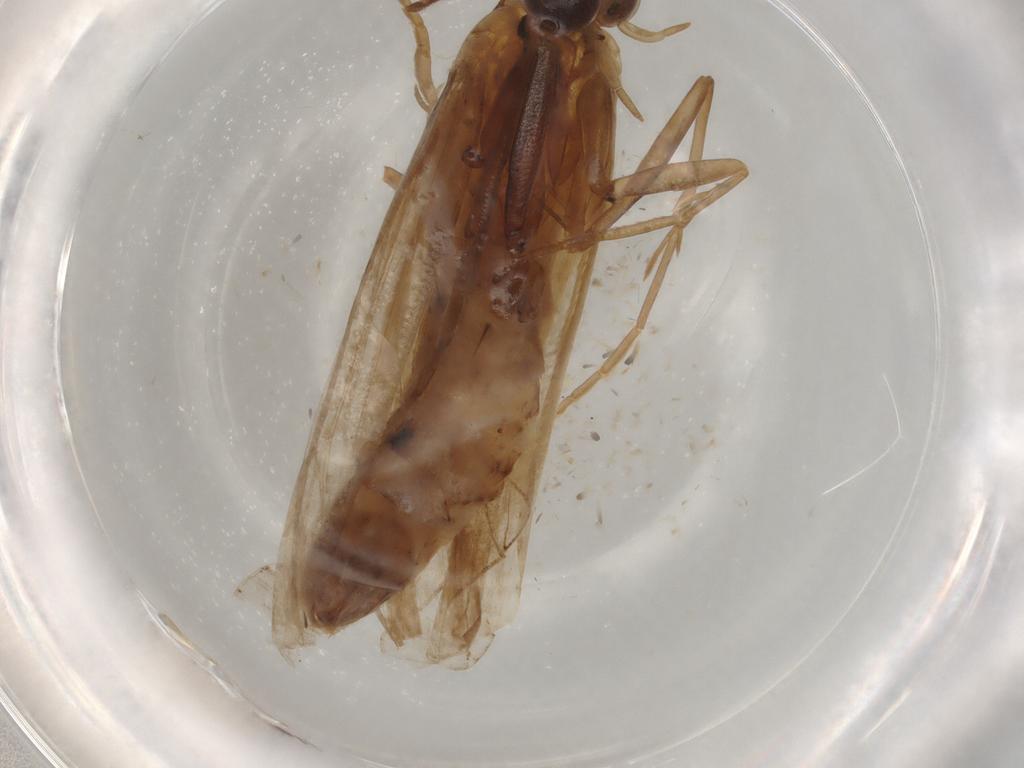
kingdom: Animalia
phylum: Arthropoda
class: Insecta
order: Lepidoptera
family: Pyralidae
